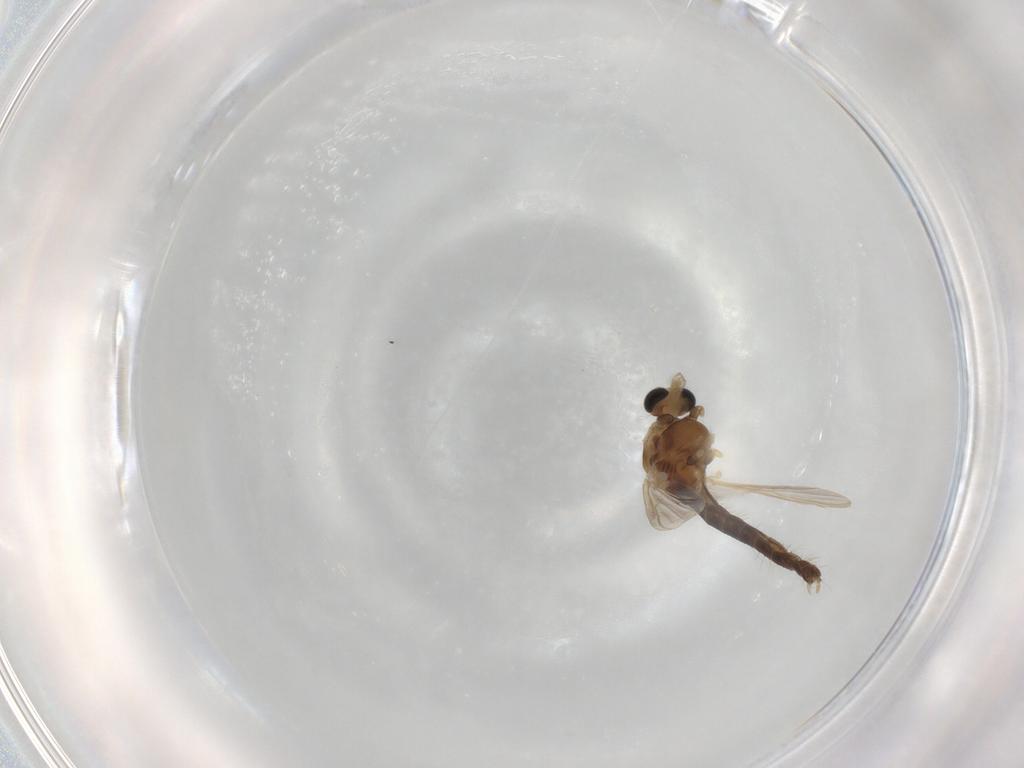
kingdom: Animalia
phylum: Arthropoda
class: Insecta
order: Diptera
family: Chironomidae
